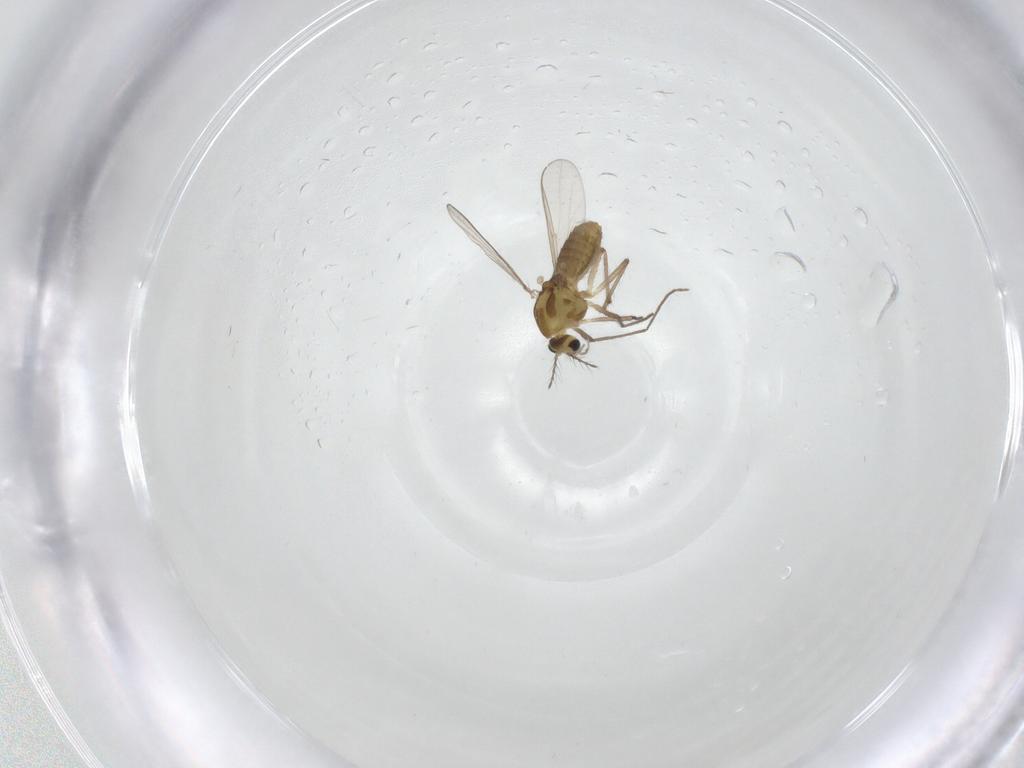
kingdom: Animalia
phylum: Arthropoda
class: Insecta
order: Diptera
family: Chironomidae
